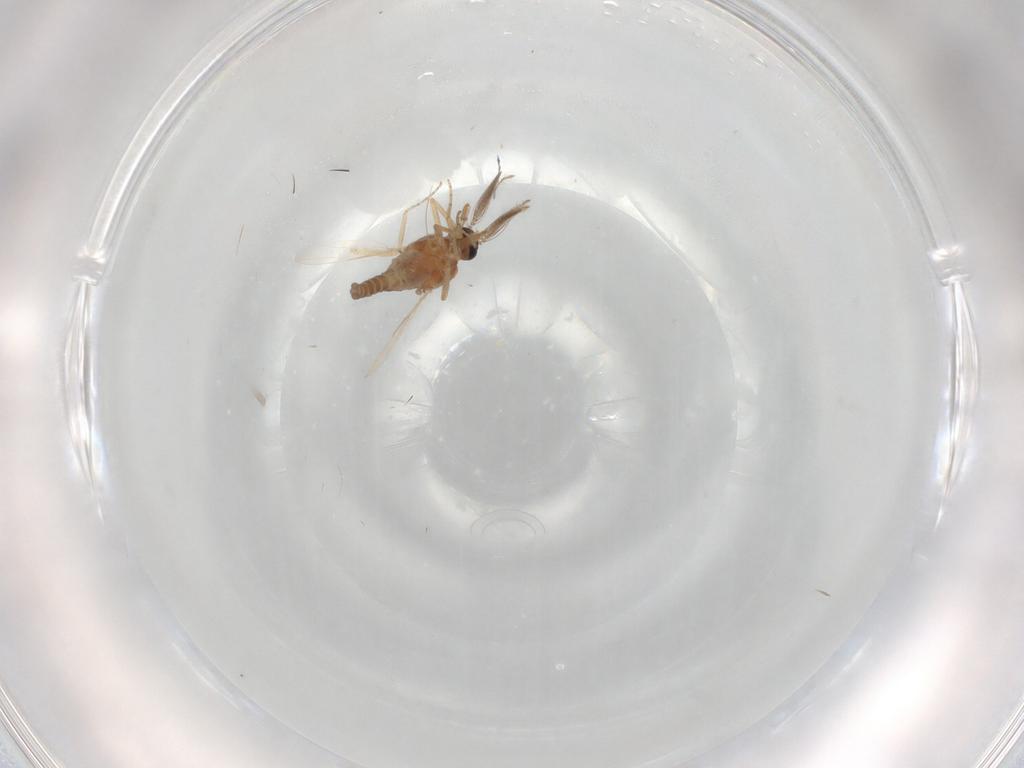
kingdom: Animalia
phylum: Arthropoda
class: Insecta
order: Diptera
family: Ceratopogonidae
